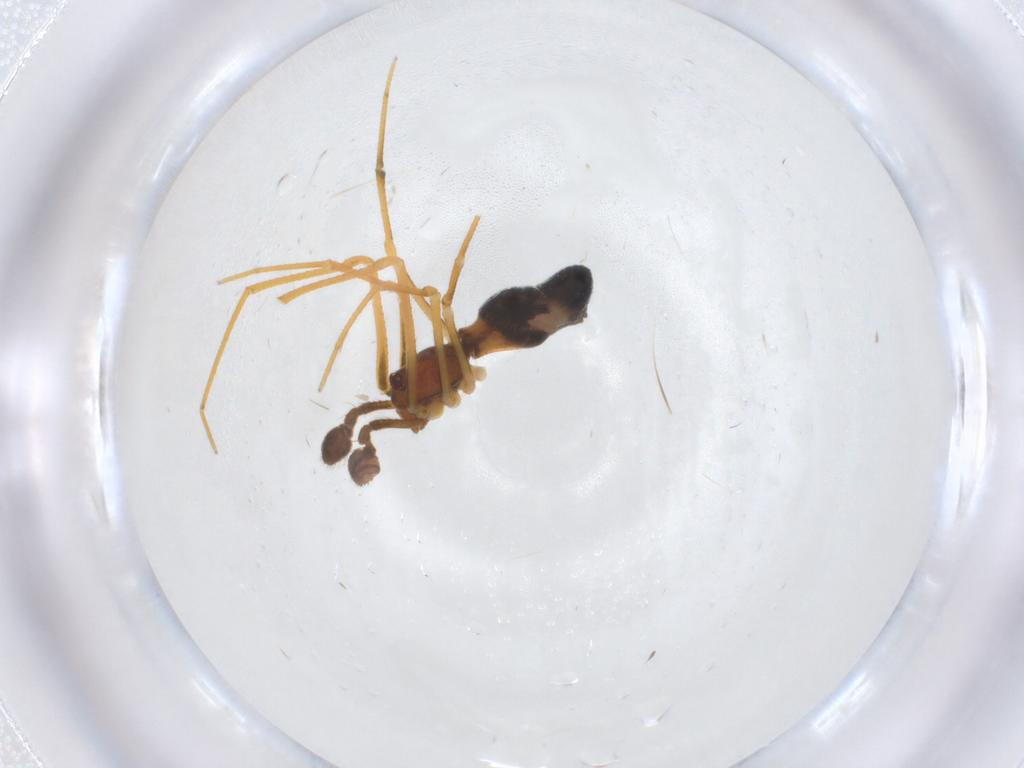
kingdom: Animalia
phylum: Arthropoda
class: Arachnida
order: Araneae
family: Theridiidae
